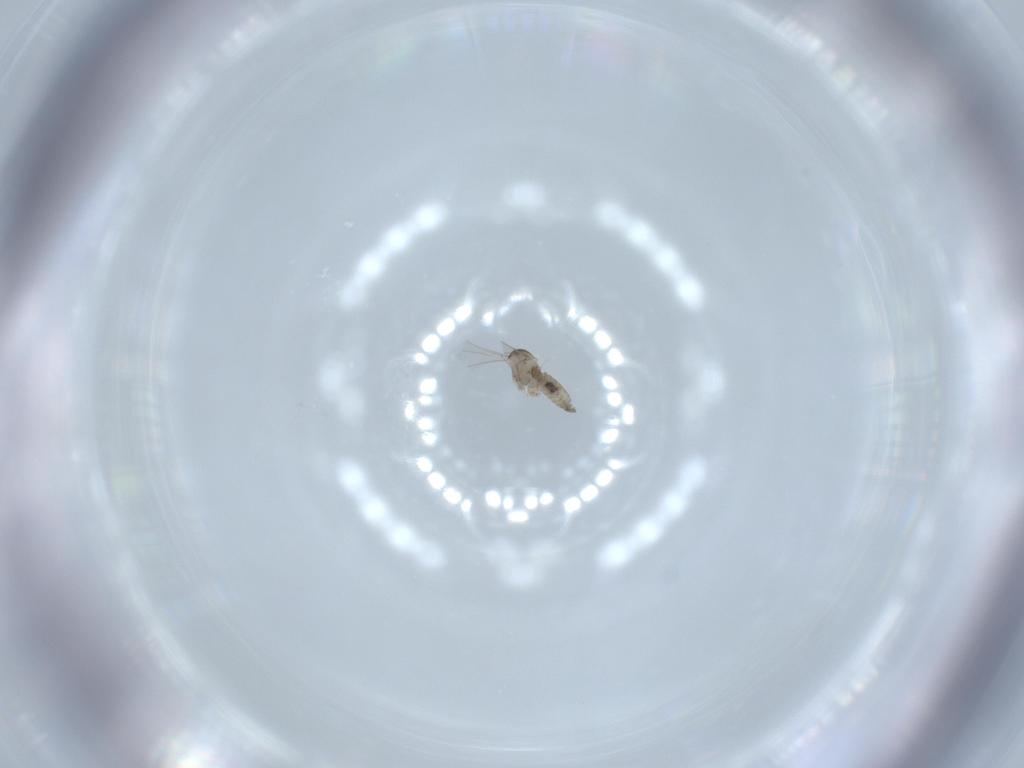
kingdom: Animalia
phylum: Arthropoda
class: Insecta
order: Diptera
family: Cecidomyiidae
